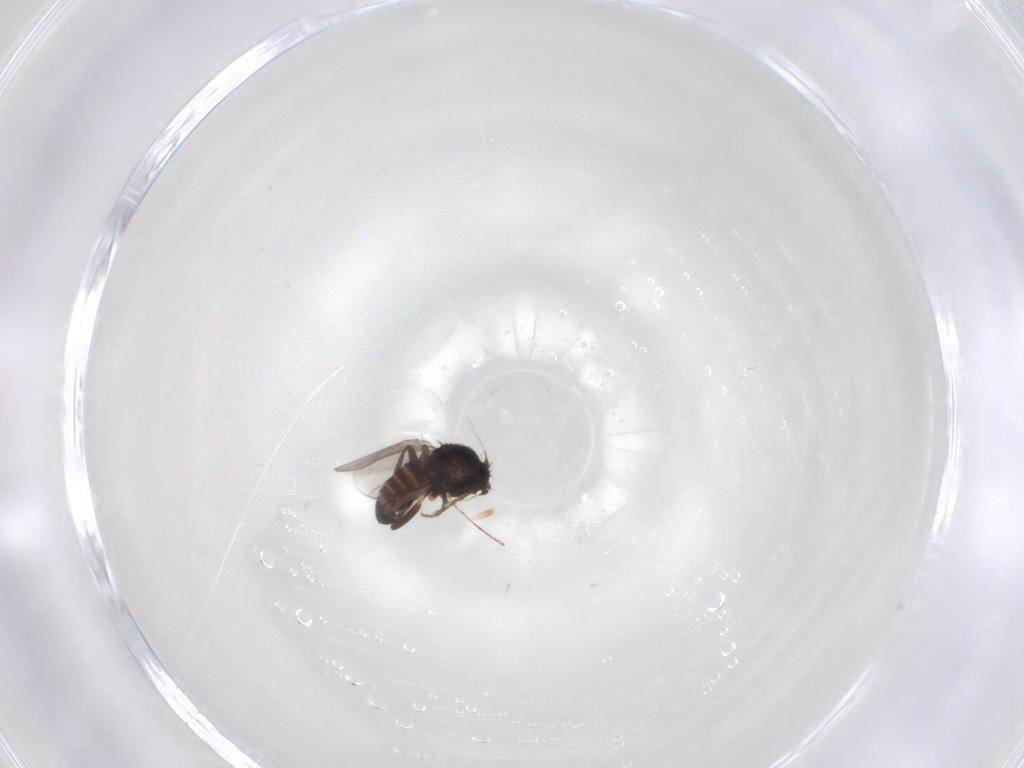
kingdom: Animalia
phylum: Arthropoda
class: Insecta
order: Diptera
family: Sphaeroceridae
